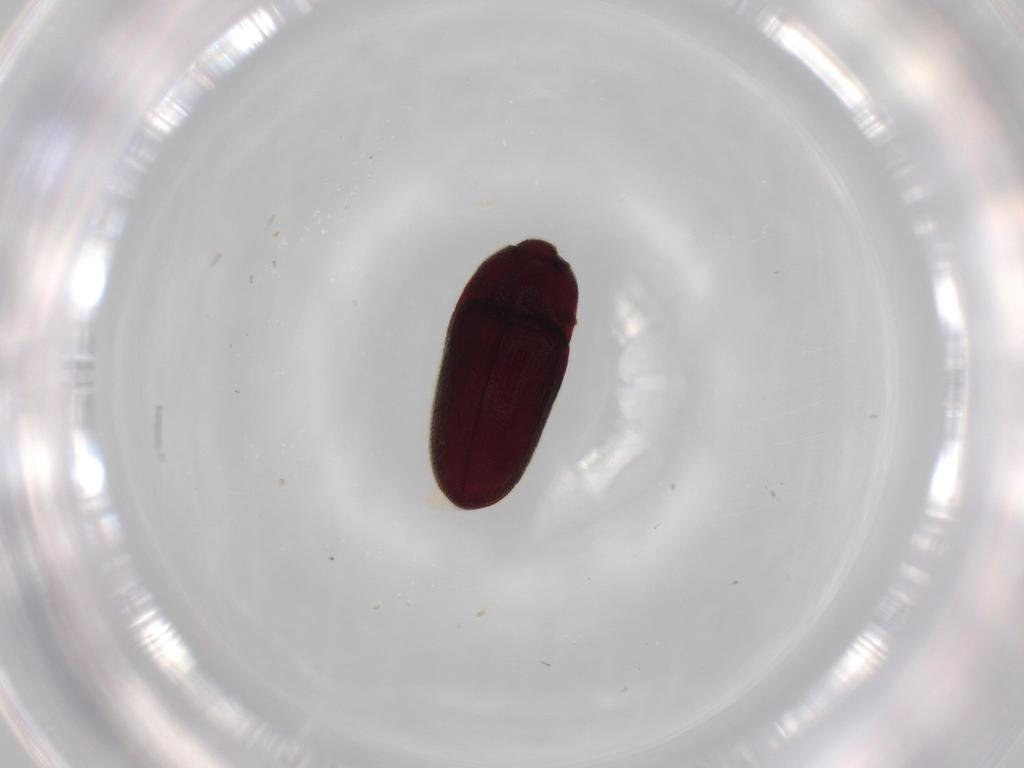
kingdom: Animalia
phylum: Arthropoda
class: Insecta
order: Coleoptera
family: Throscidae
